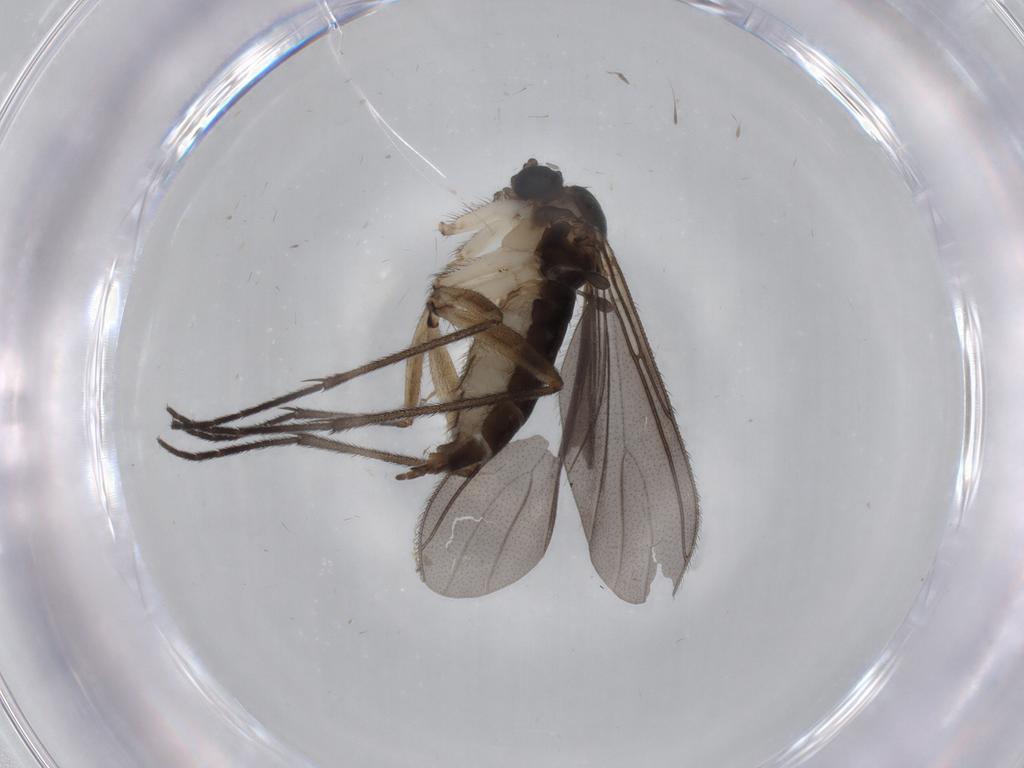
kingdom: Animalia
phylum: Arthropoda
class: Insecta
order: Diptera
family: Sciaridae
